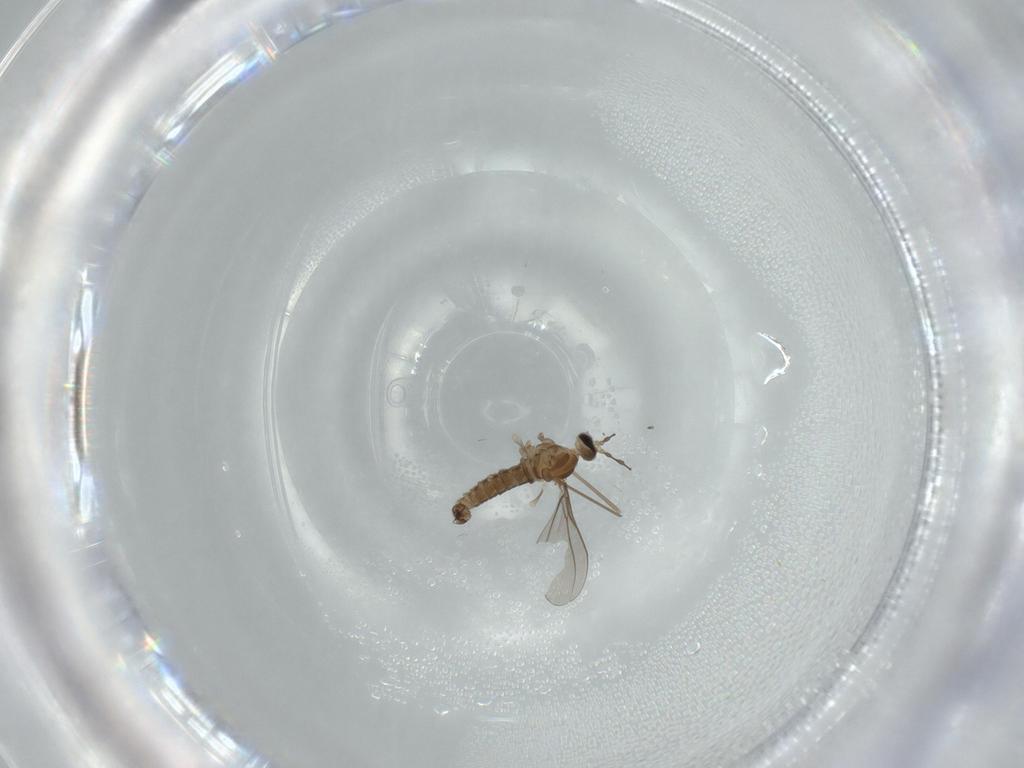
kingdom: Animalia
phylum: Arthropoda
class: Insecta
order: Diptera
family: Cecidomyiidae
